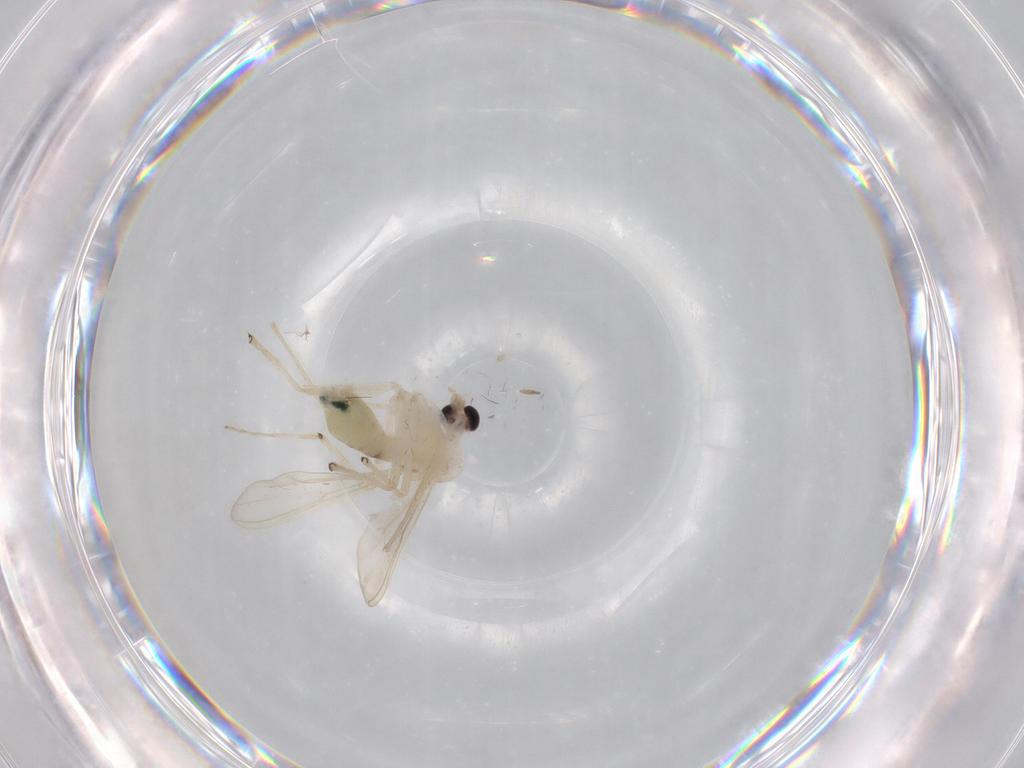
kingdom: Animalia
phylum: Arthropoda
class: Insecta
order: Diptera
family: Chironomidae
